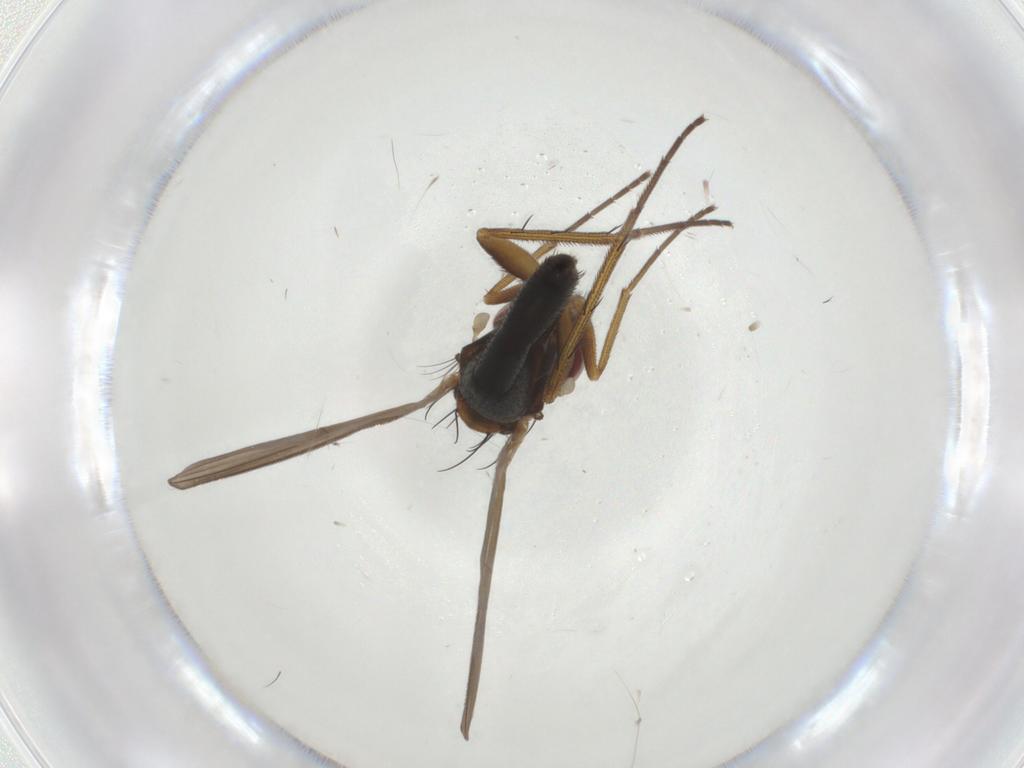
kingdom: Animalia
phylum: Arthropoda
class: Insecta
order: Diptera
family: Dolichopodidae
